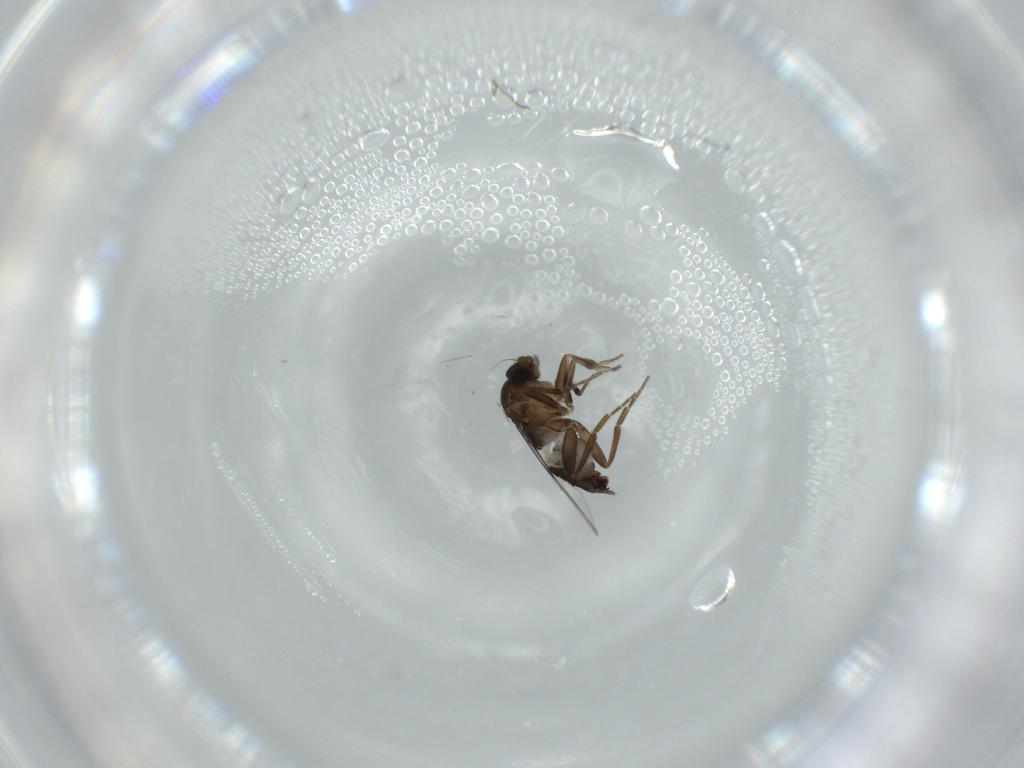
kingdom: Animalia
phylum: Arthropoda
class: Insecta
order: Diptera
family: Phoridae
